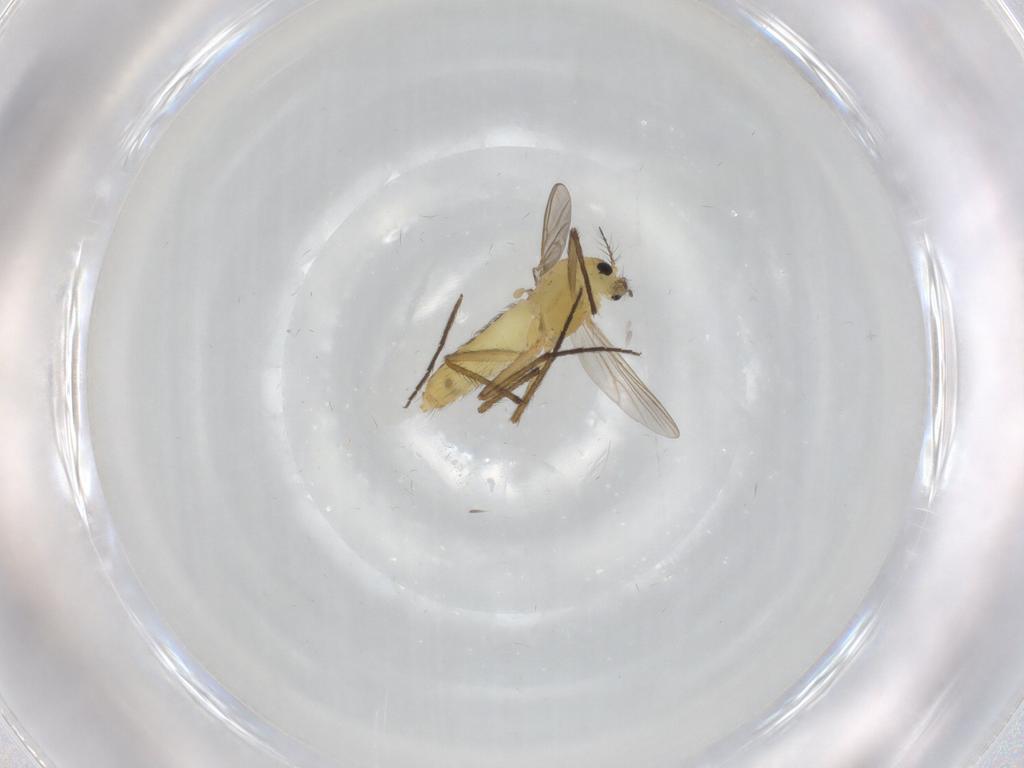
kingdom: Animalia
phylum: Arthropoda
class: Insecta
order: Diptera
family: Chironomidae
